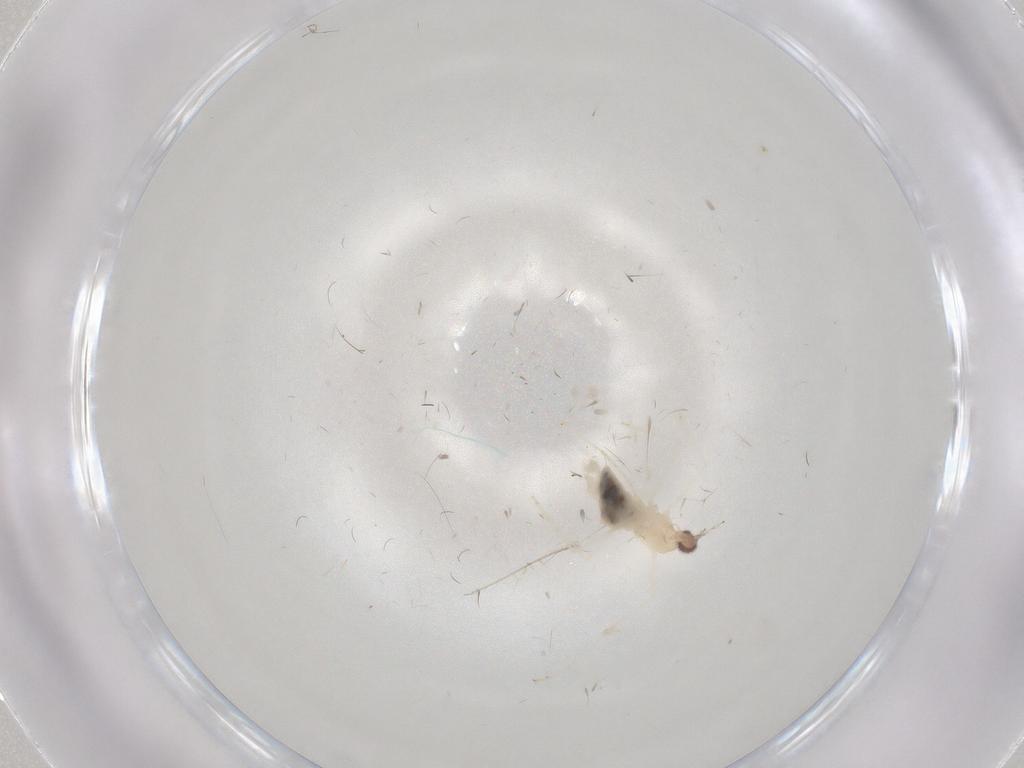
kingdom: Animalia
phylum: Arthropoda
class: Insecta
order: Diptera
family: Cecidomyiidae
